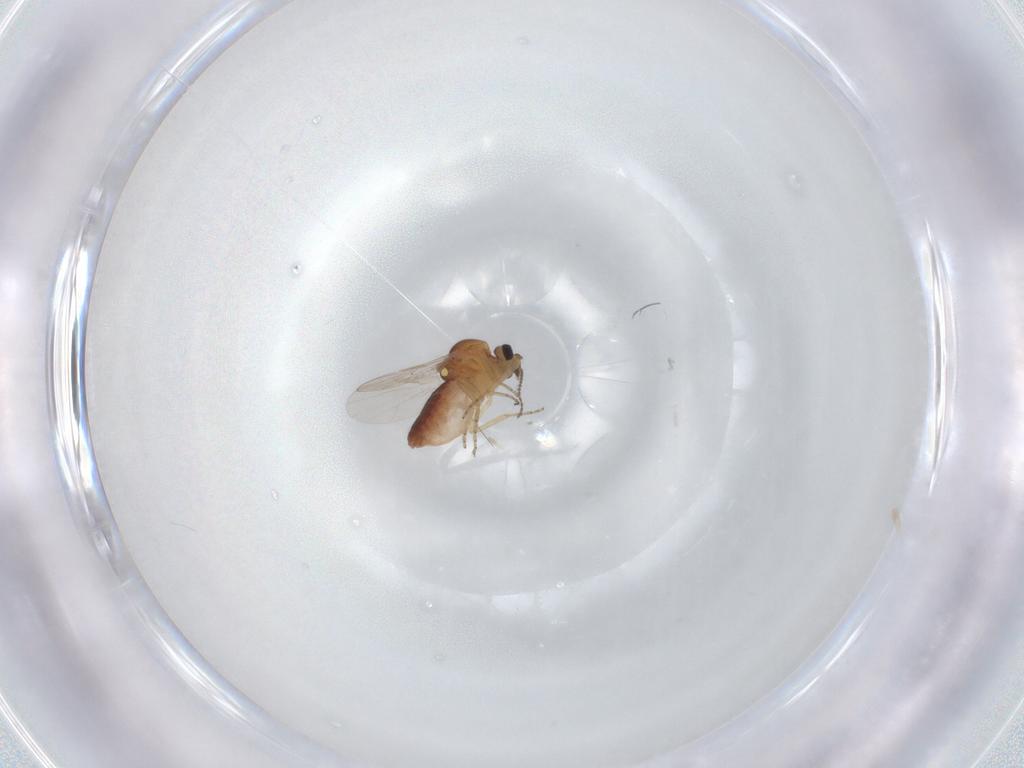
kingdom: Animalia
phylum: Arthropoda
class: Insecta
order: Diptera
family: Ceratopogonidae
